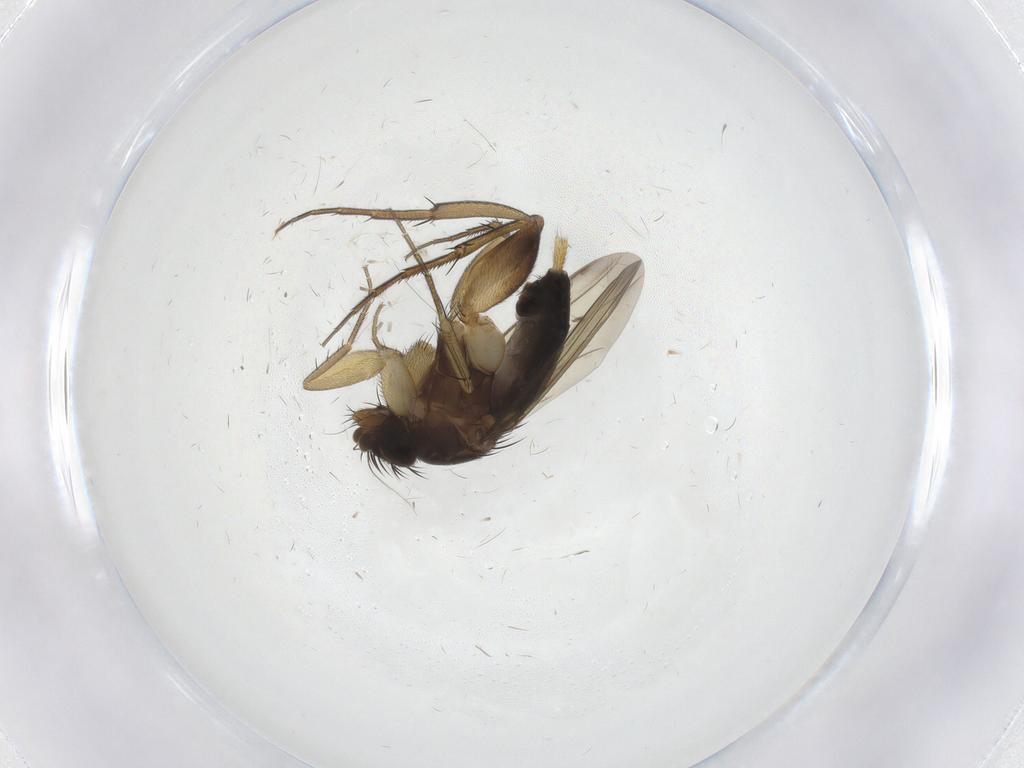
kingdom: Animalia
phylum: Arthropoda
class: Insecta
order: Diptera
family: Phoridae
